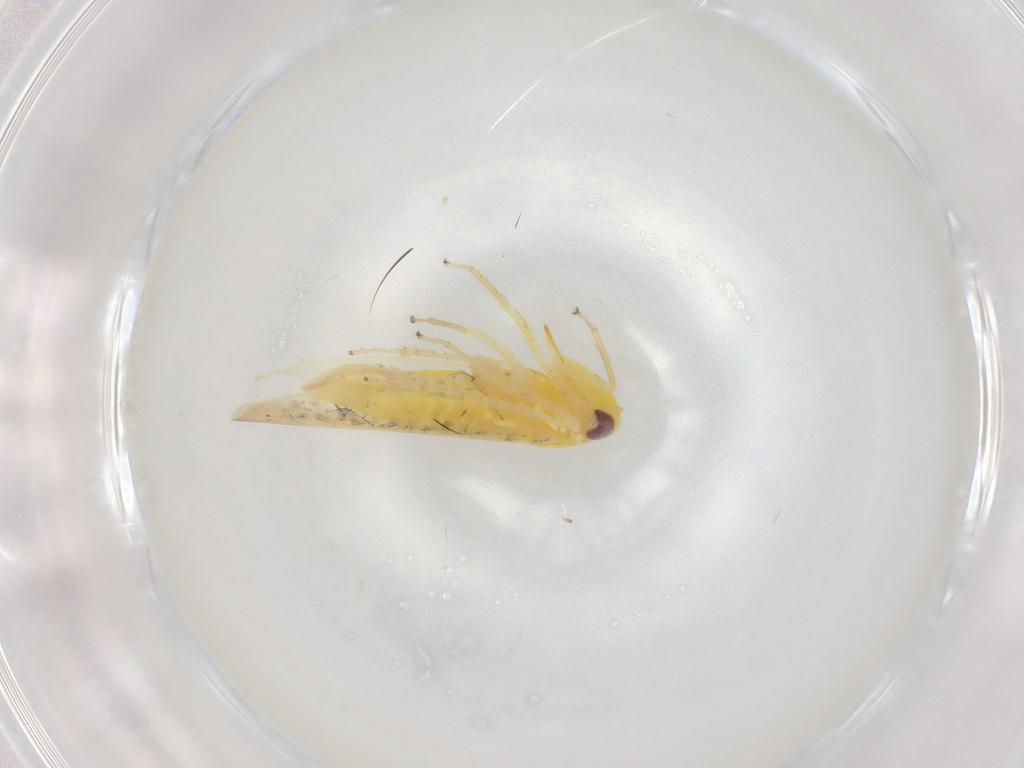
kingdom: Animalia
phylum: Arthropoda
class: Insecta
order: Hemiptera
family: Cicadellidae
